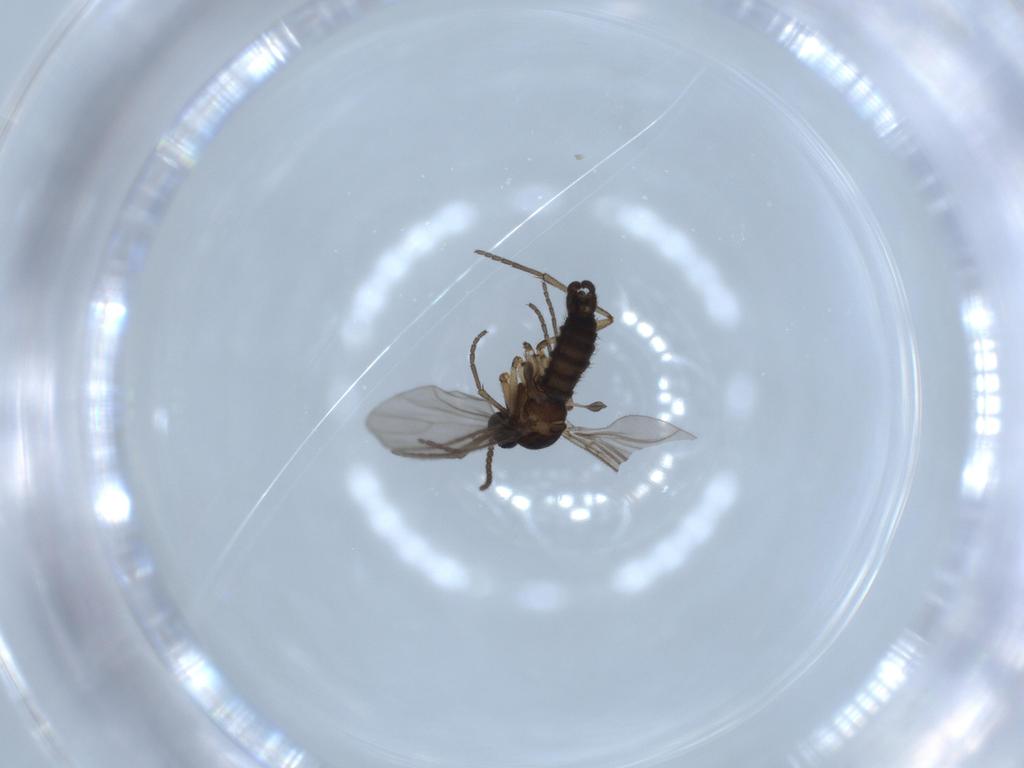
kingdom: Animalia
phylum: Arthropoda
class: Insecta
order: Diptera
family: Sciaridae
